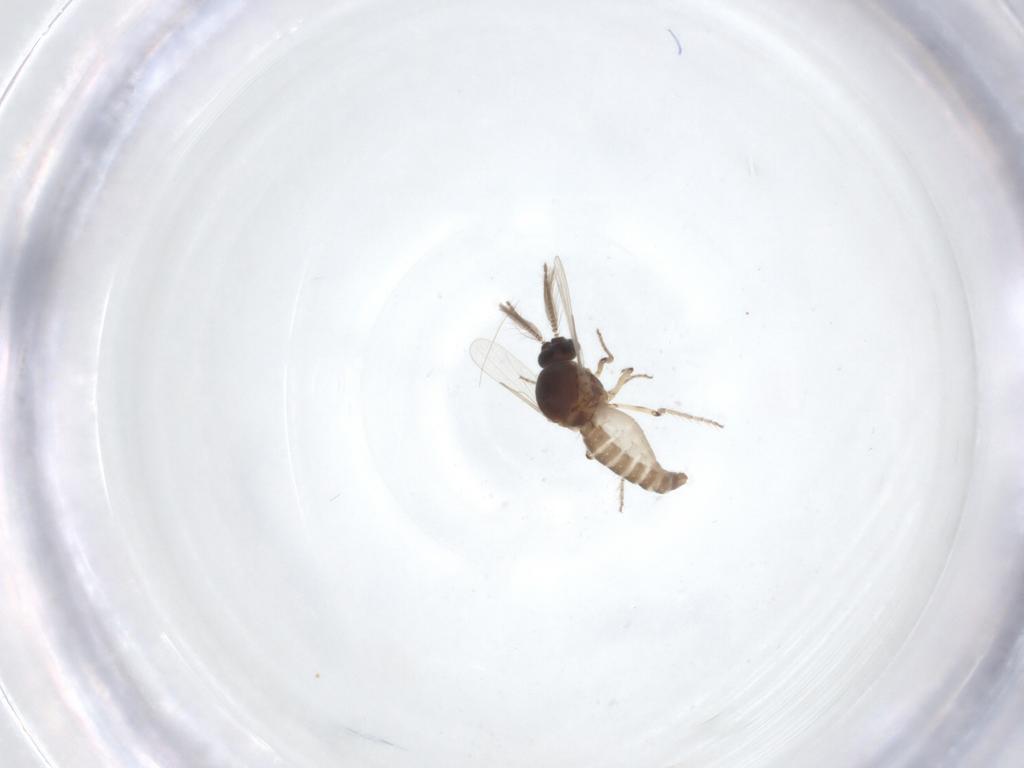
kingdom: Animalia
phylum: Arthropoda
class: Insecta
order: Diptera
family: Ceratopogonidae
